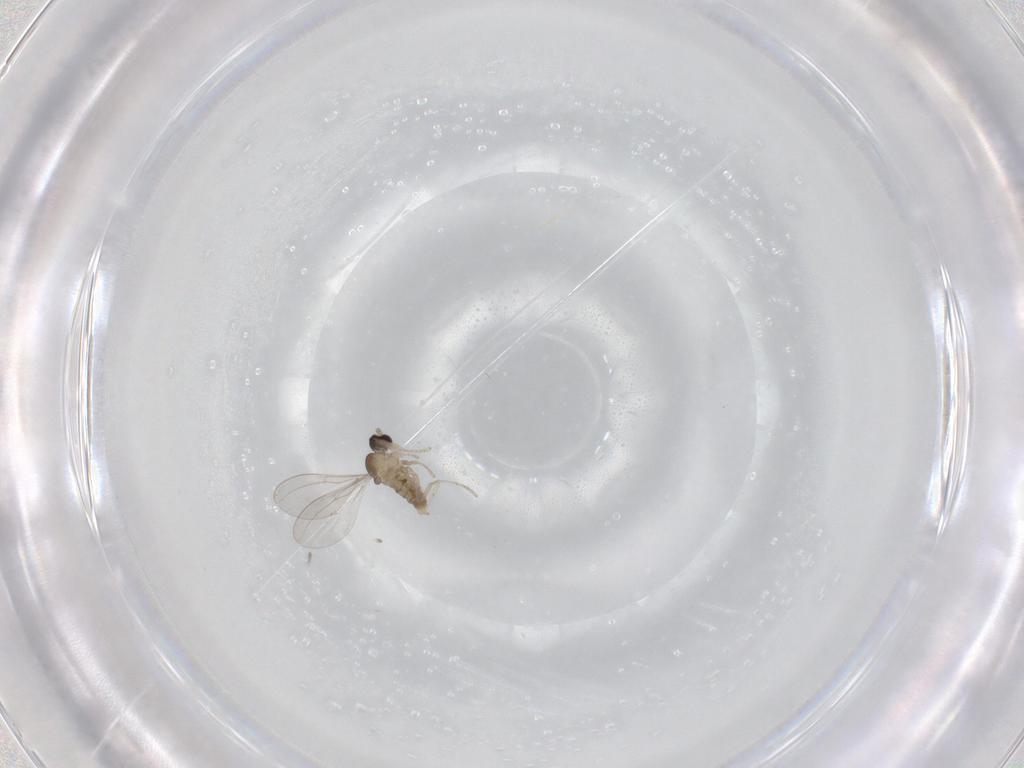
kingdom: Animalia
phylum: Arthropoda
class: Insecta
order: Diptera
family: Cecidomyiidae
